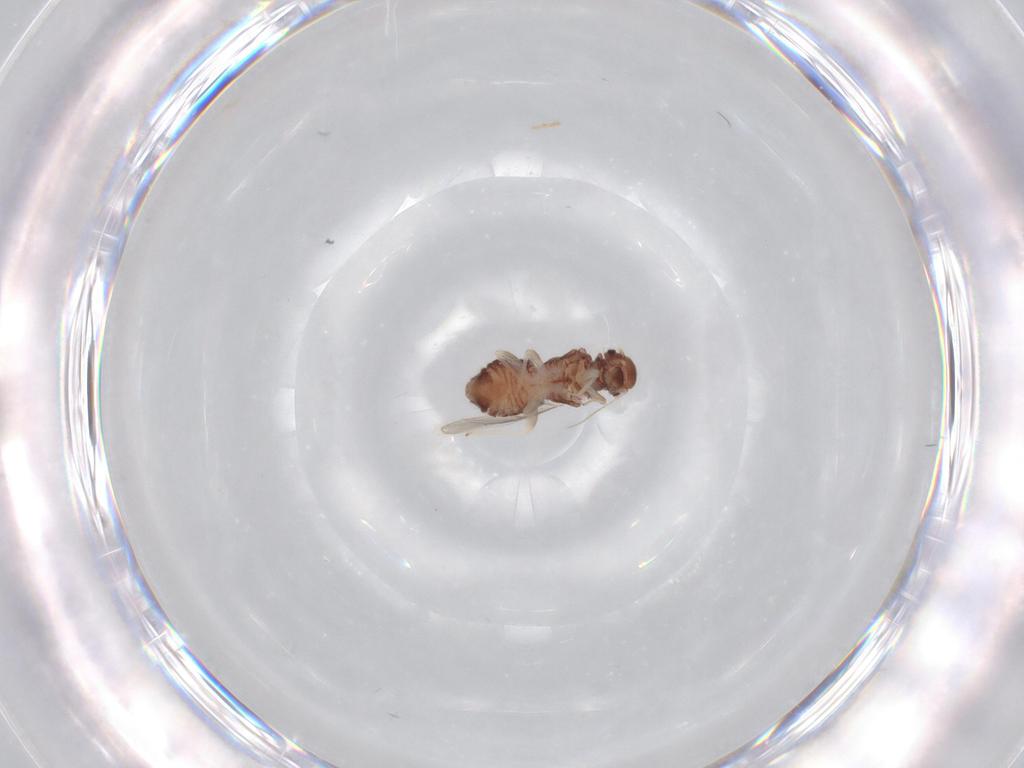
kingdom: Animalia
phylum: Arthropoda
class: Insecta
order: Psocodea
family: Archipsocidae
